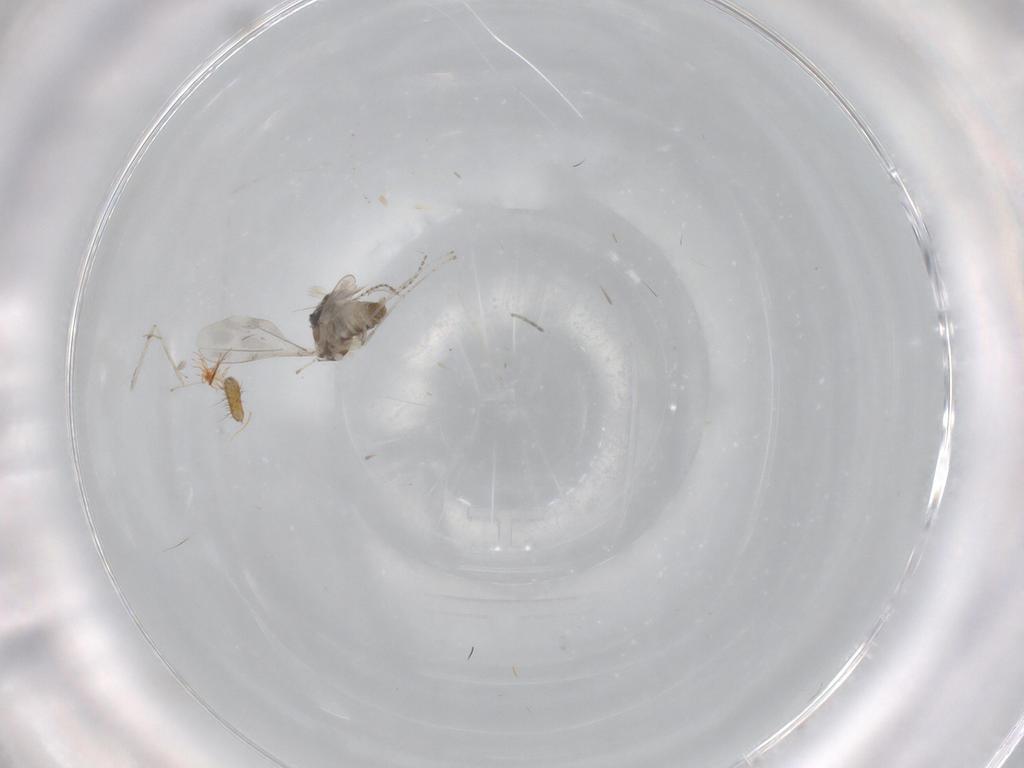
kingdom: Animalia
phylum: Arthropoda
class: Insecta
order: Diptera
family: Cecidomyiidae
